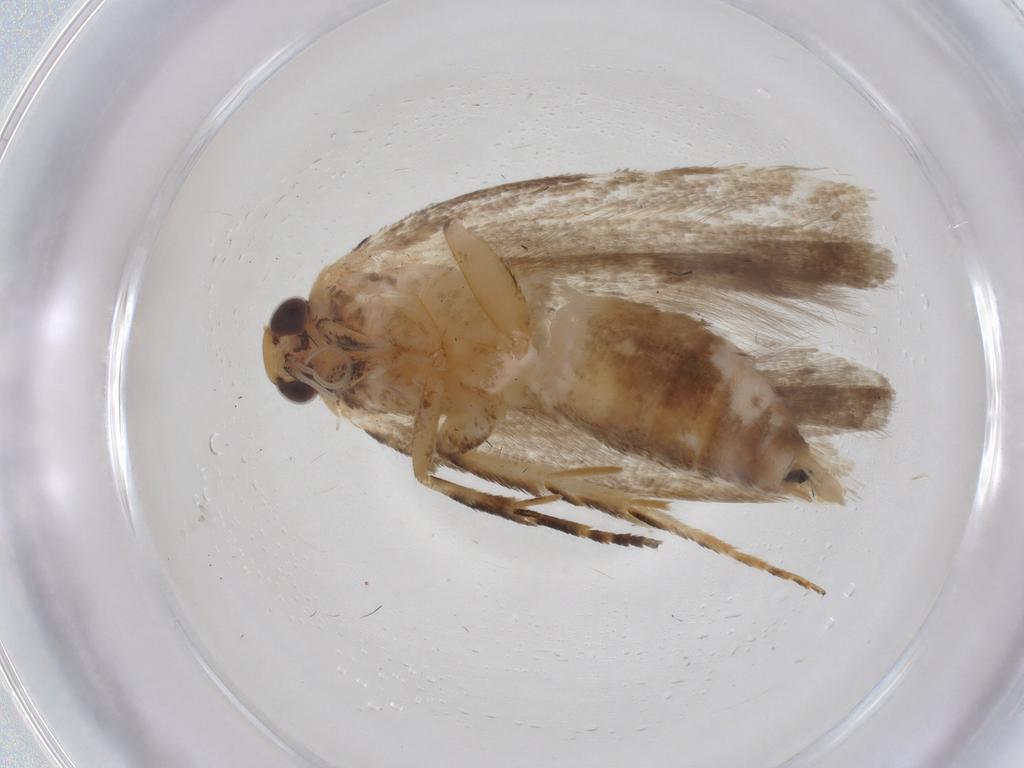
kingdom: Animalia
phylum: Arthropoda
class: Insecta
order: Lepidoptera
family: Gelechiidae
